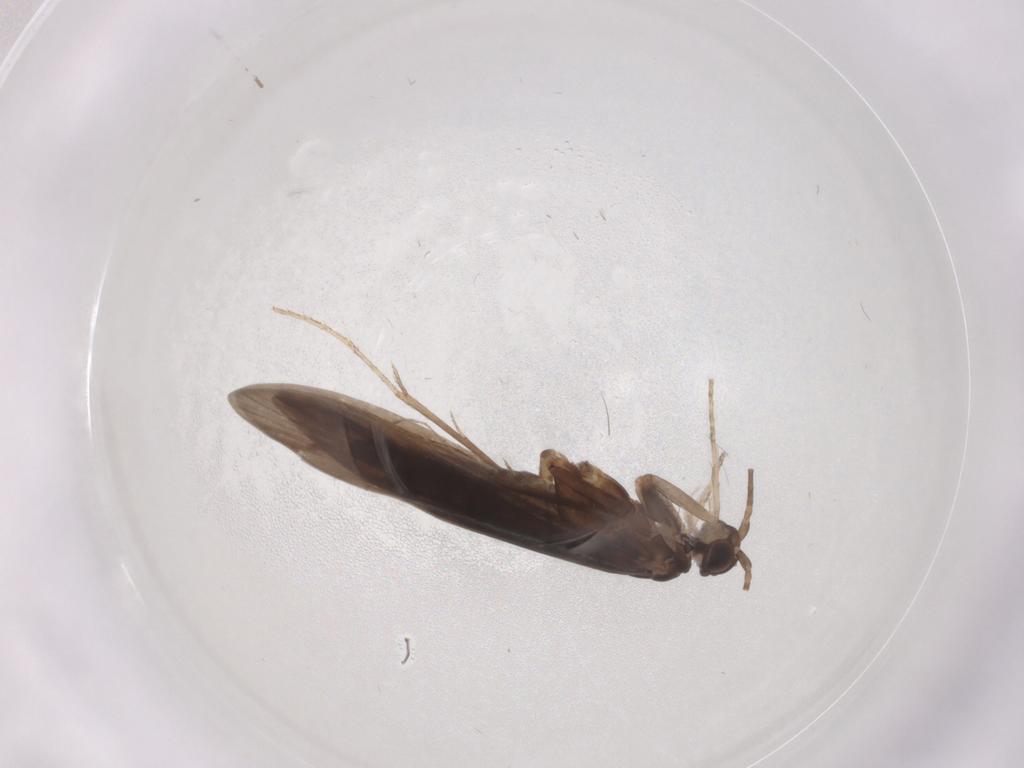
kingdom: Animalia
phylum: Arthropoda
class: Insecta
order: Trichoptera
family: Xiphocentronidae
